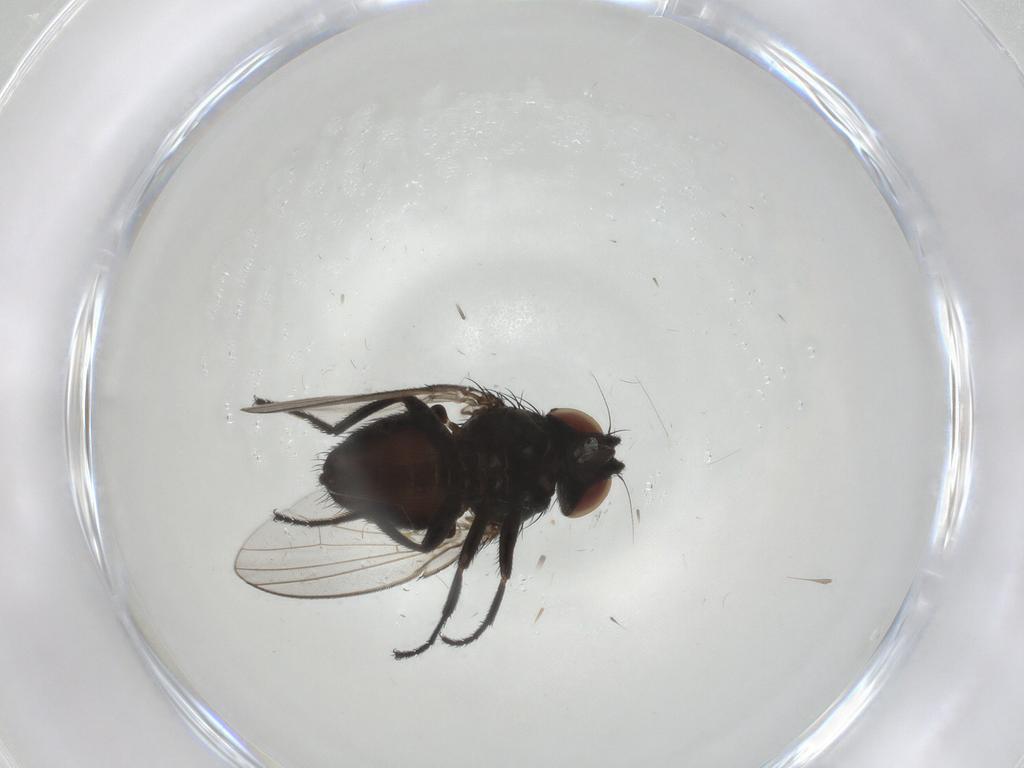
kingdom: Animalia
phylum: Arthropoda
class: Insecta
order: Diptera
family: Milichiidae
